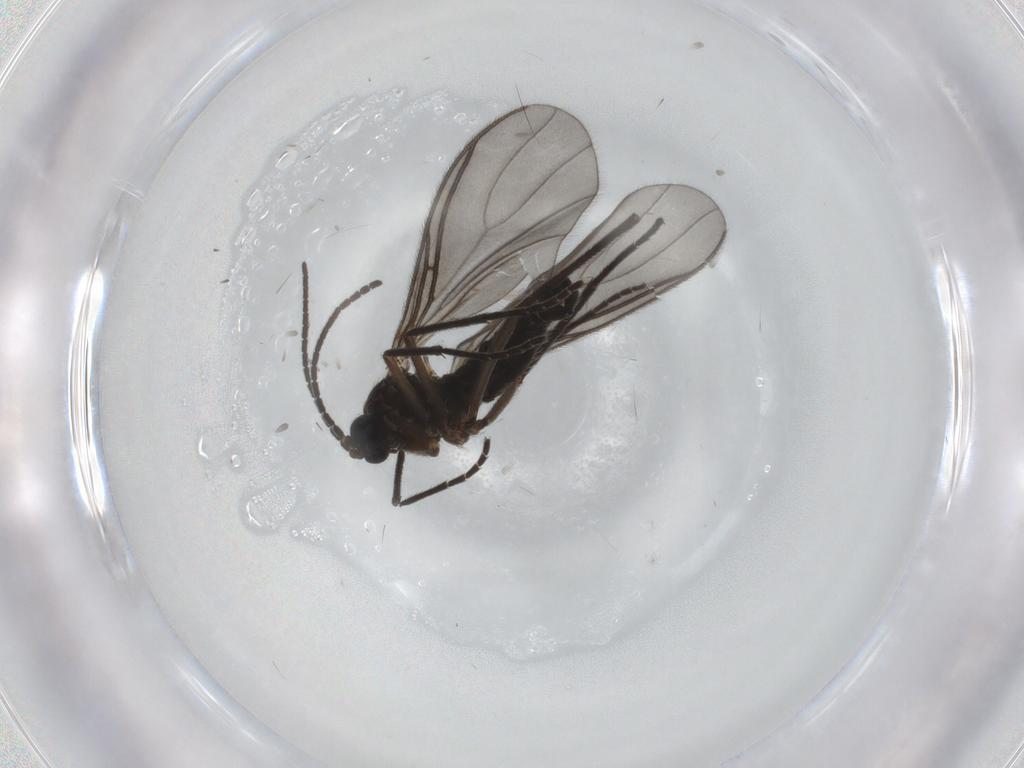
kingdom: Animalia
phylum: Arthropoda
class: Insecta
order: Diptera
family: Sciaridae
